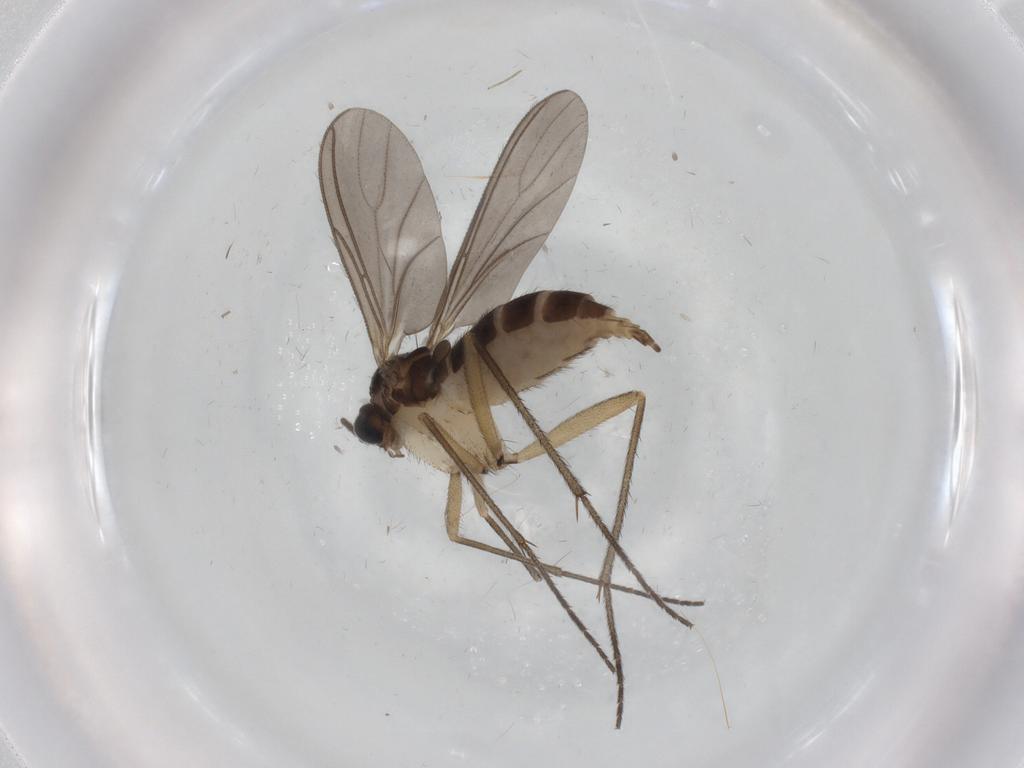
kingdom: Animalia
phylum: Arthropoda
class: Insecta
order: Diptera
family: Sciaridae
